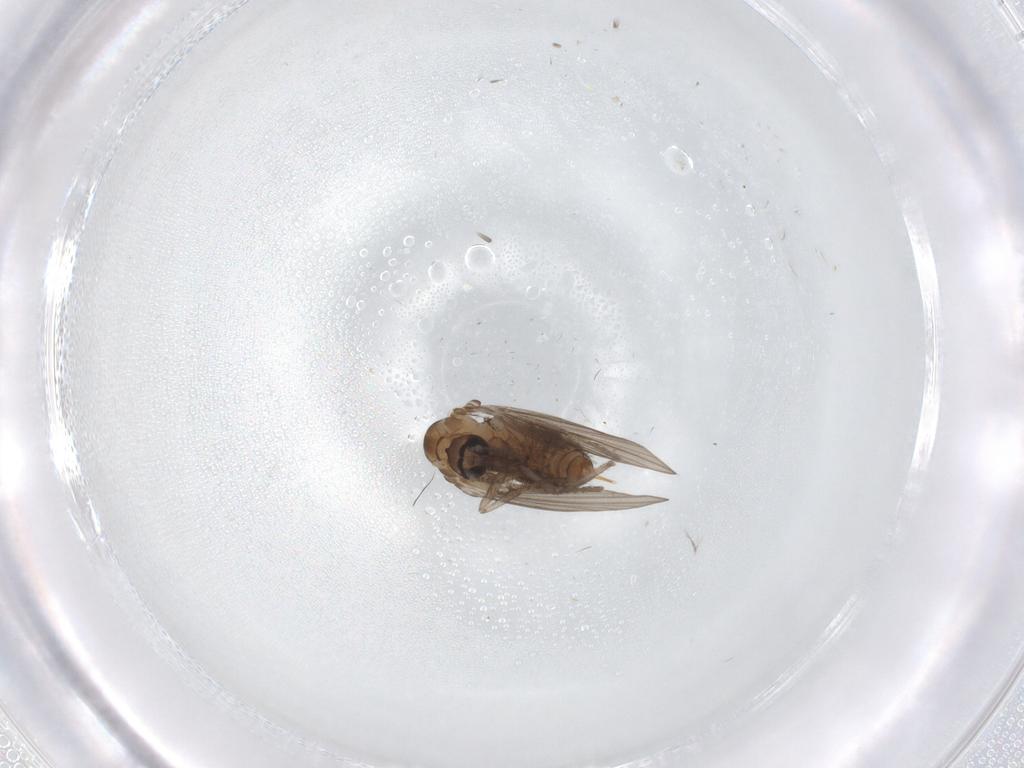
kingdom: Animalia
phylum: Arthropoda
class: Insecta
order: Diptera
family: Psychodidae
